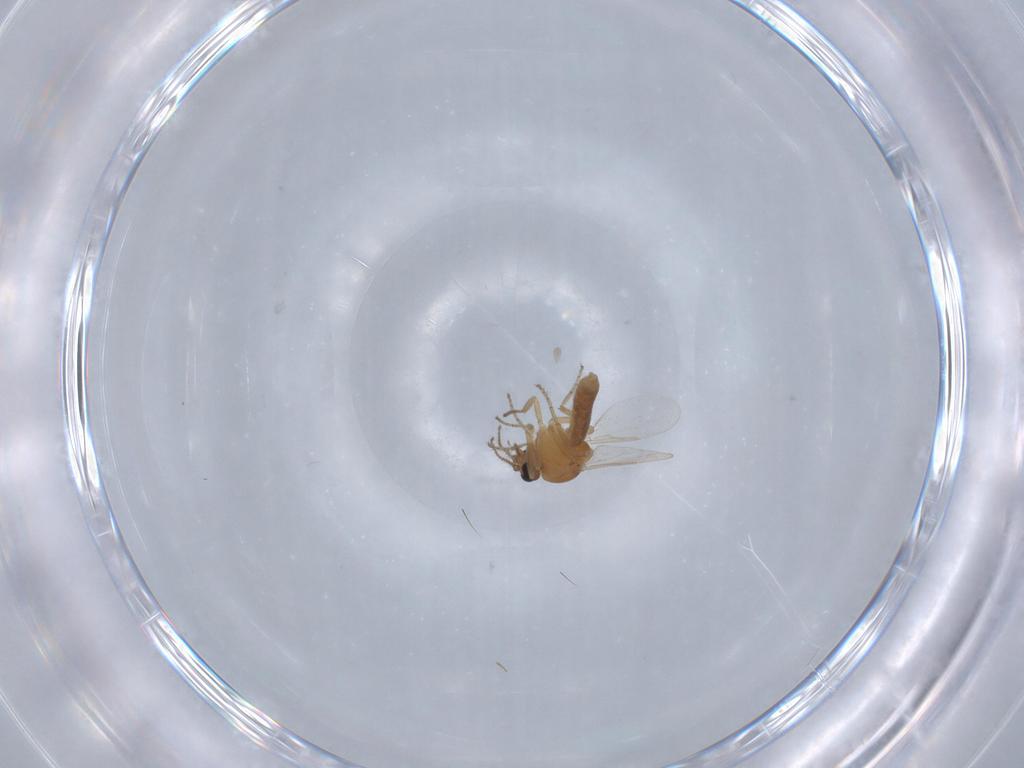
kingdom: Animalia
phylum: Arthropoda
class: Insecta
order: Diptera
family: Ceratopogonidae
